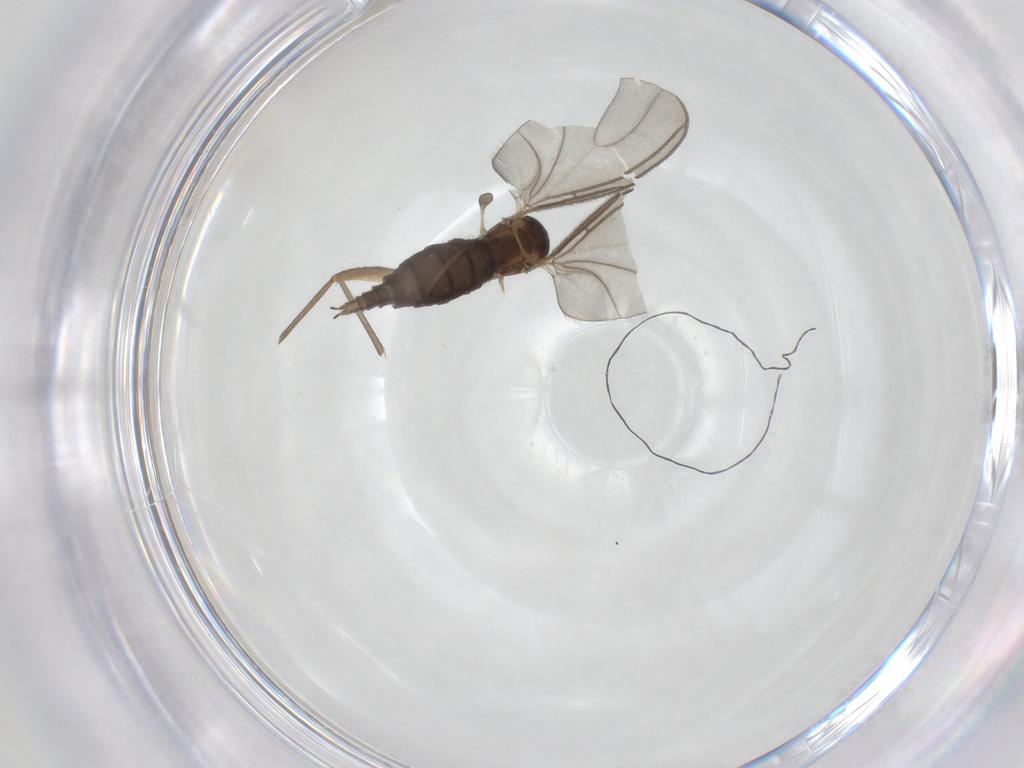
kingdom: Animalia
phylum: Arthropoda
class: Insecta
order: Diptera
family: Sciaridae
